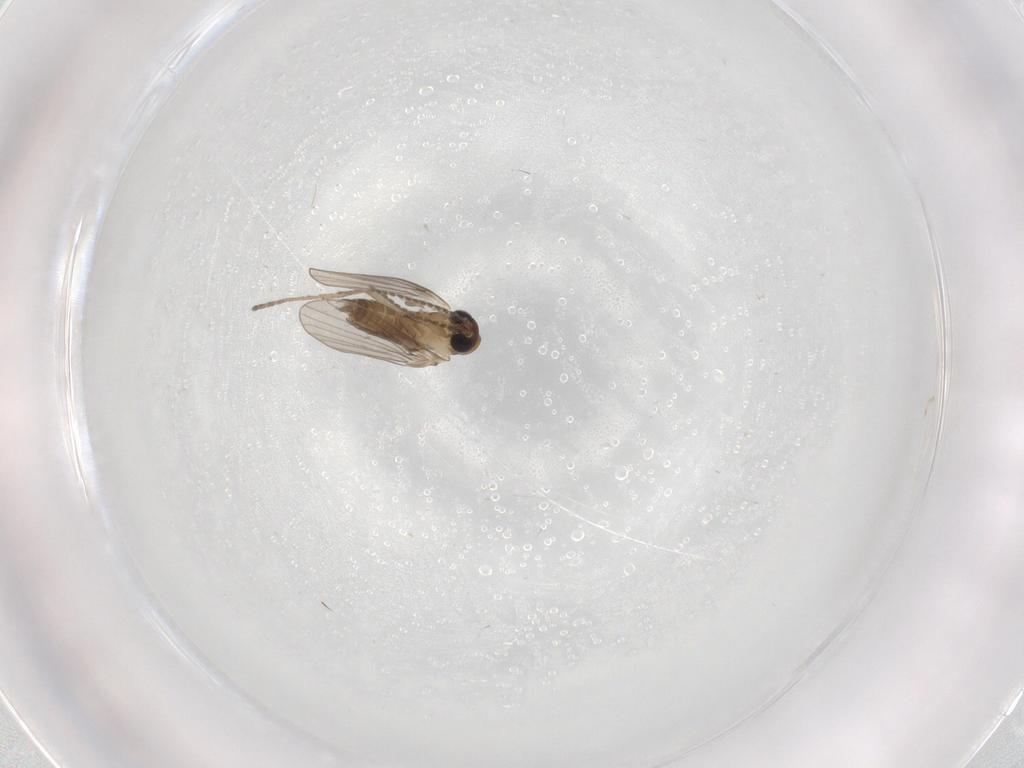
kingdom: Animalia
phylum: Arthropoda
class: Insecta
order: Diptera
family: Psychodidae
